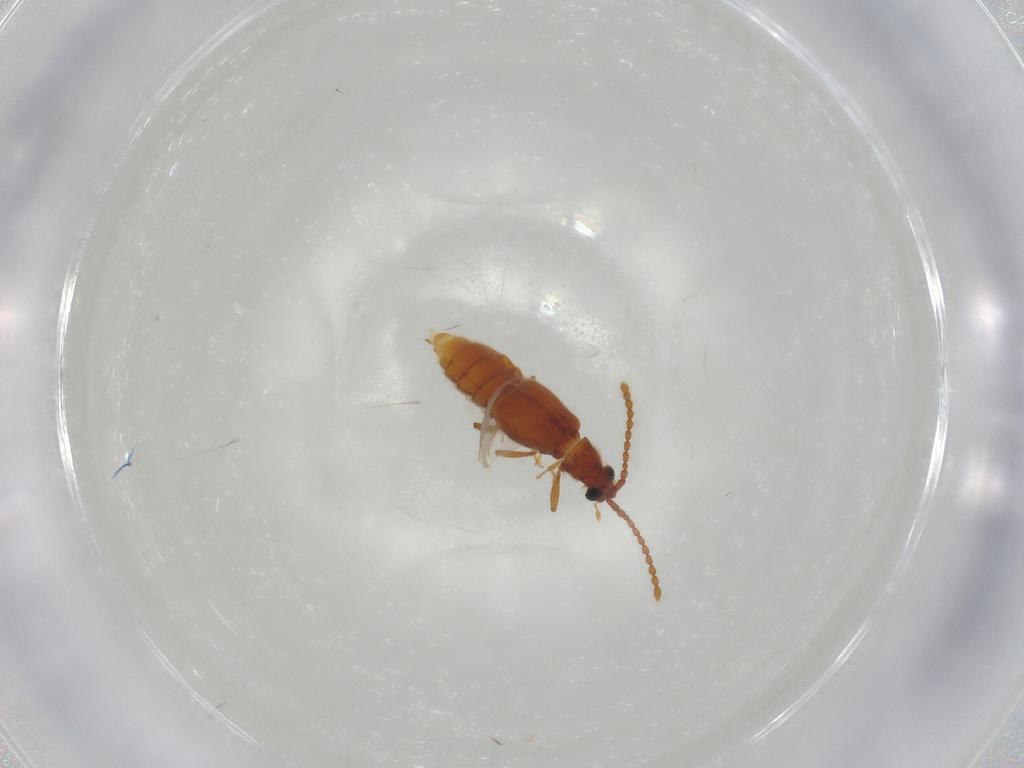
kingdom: Animalia
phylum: Arthropoda
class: Insecta
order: Coleoptera
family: Staphylinidae
